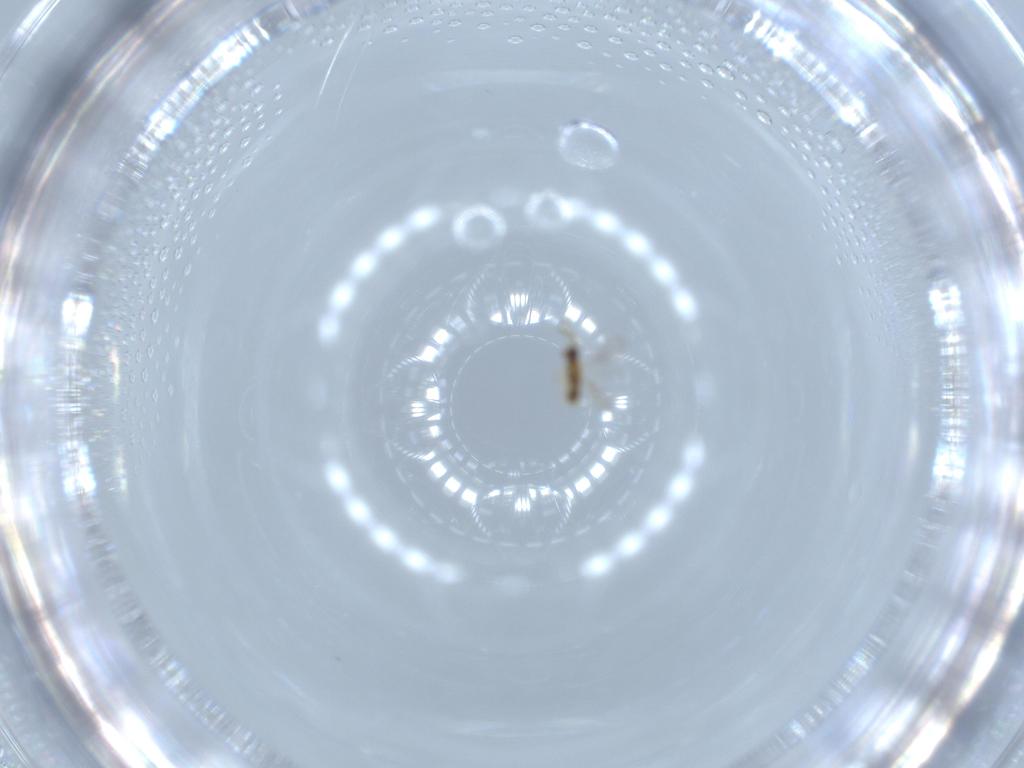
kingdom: Animalia
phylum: Arthropoda
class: Insecta
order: Hymenoptera
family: Aphelinidae
